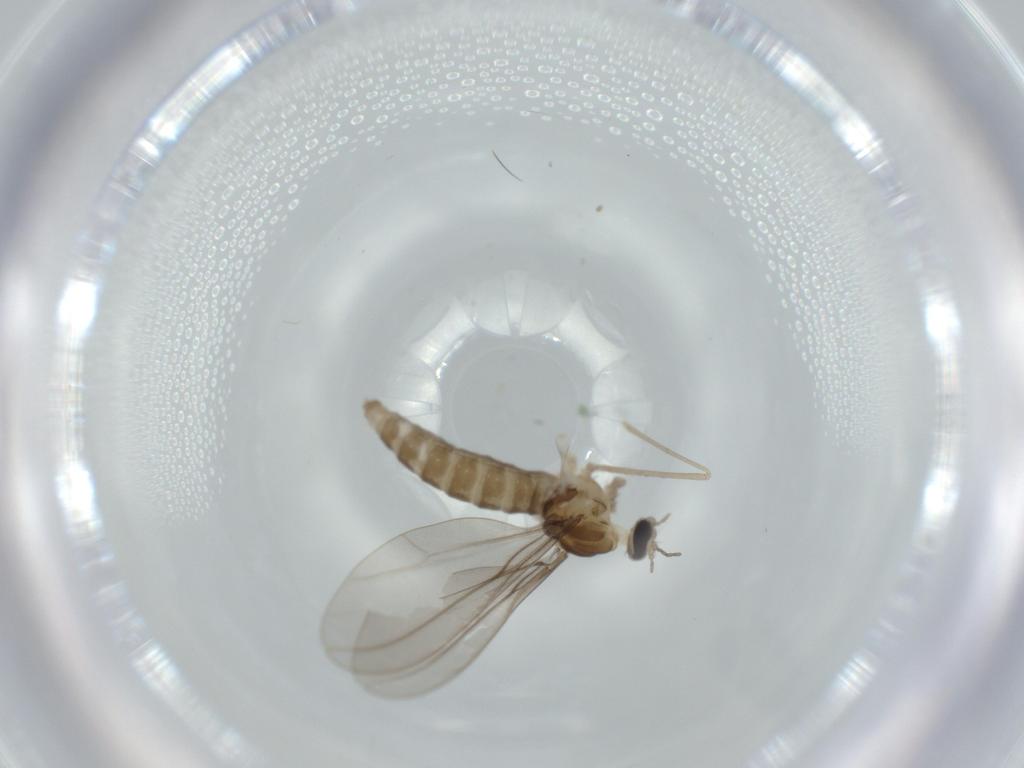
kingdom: Animalia
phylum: Arthropoda
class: Insecta
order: Diptera
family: Cecidomyiidae
